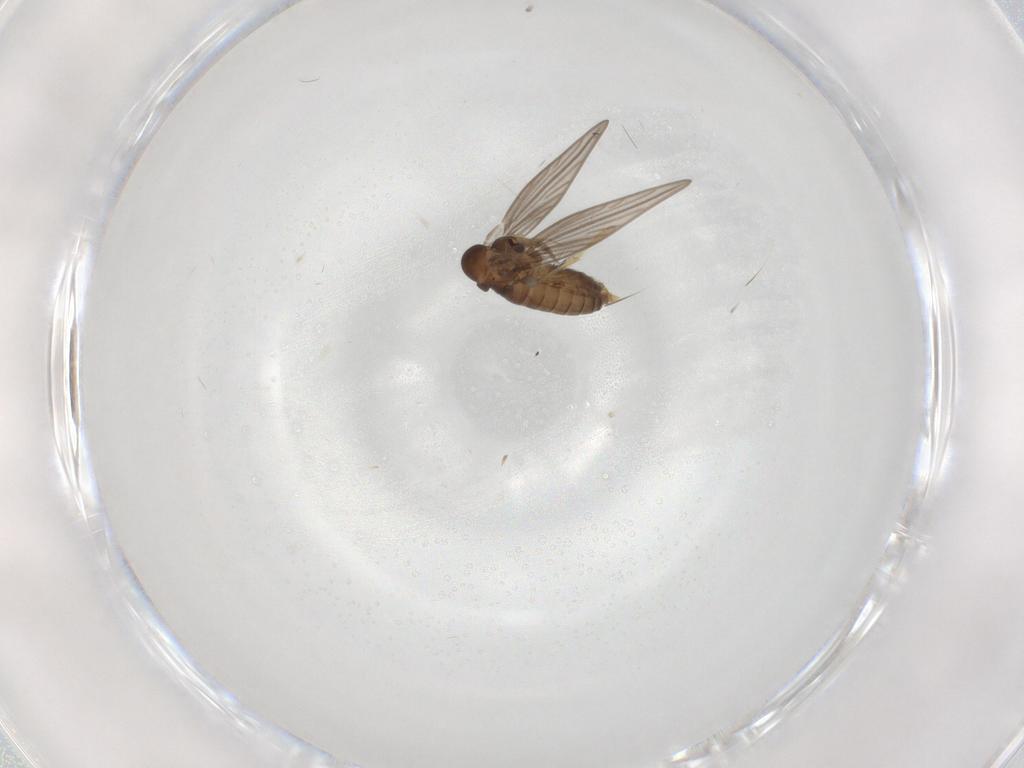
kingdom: Animalia
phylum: Arthropoda
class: Insecta
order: Diptera
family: Psychodidae
